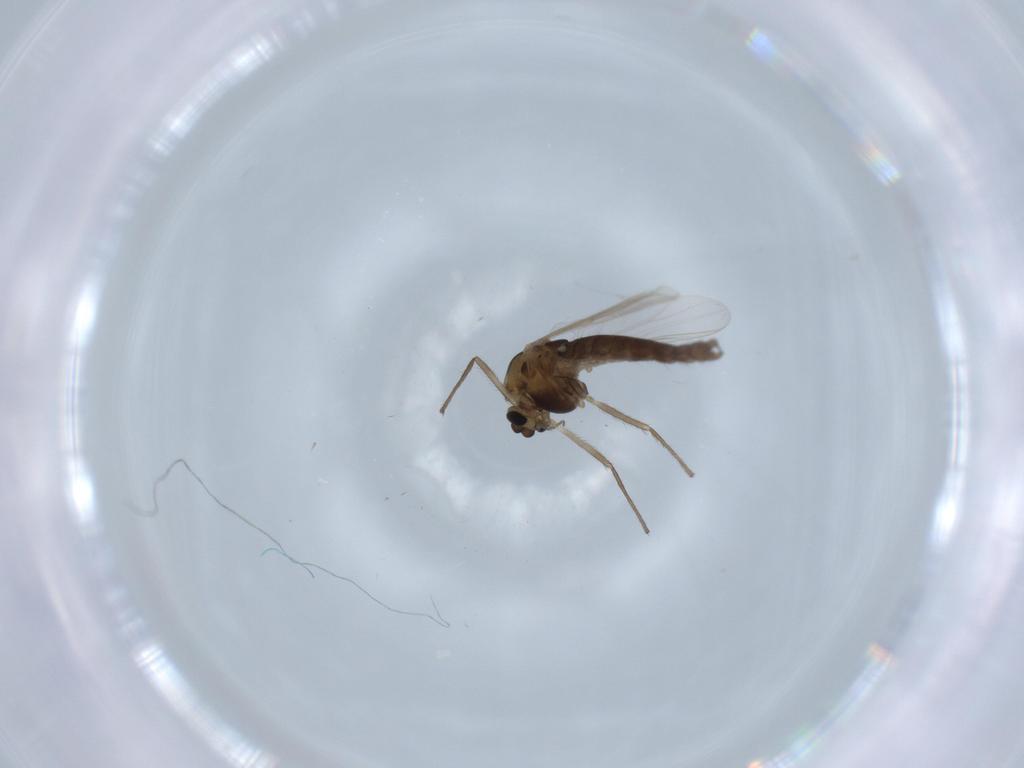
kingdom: Animalia
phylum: Arthropoda
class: Insecta
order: Diptera
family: Chironomidae
